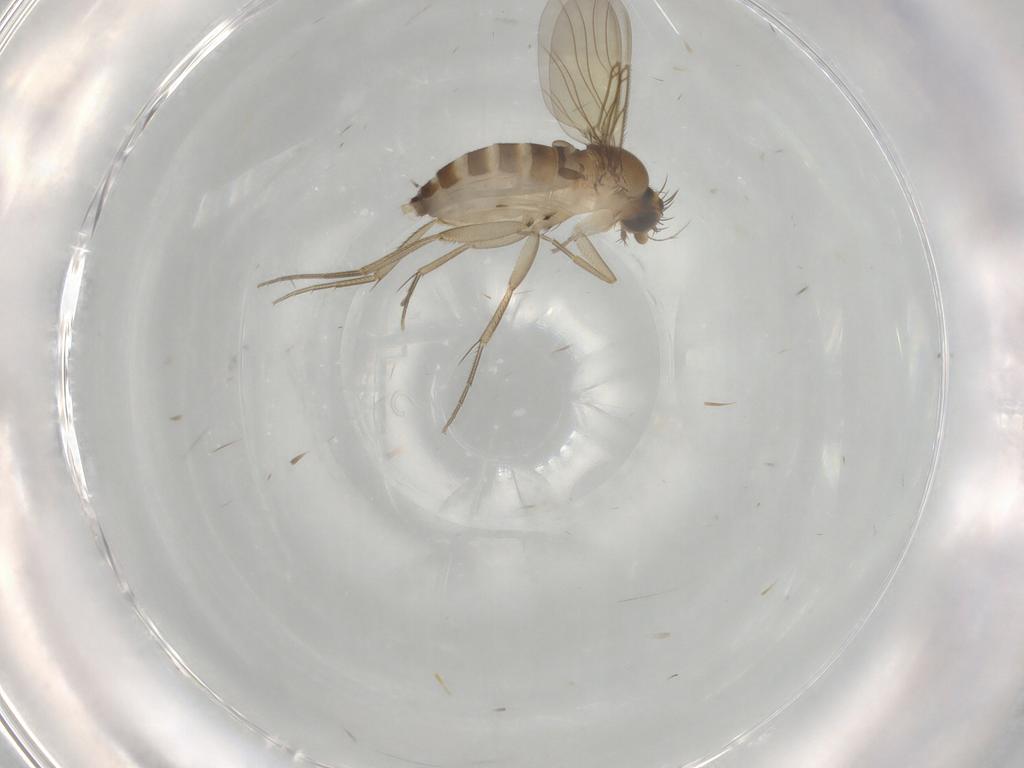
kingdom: Animalia
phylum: Arthropoda
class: Insecta
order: Diptera
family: Phoridae
